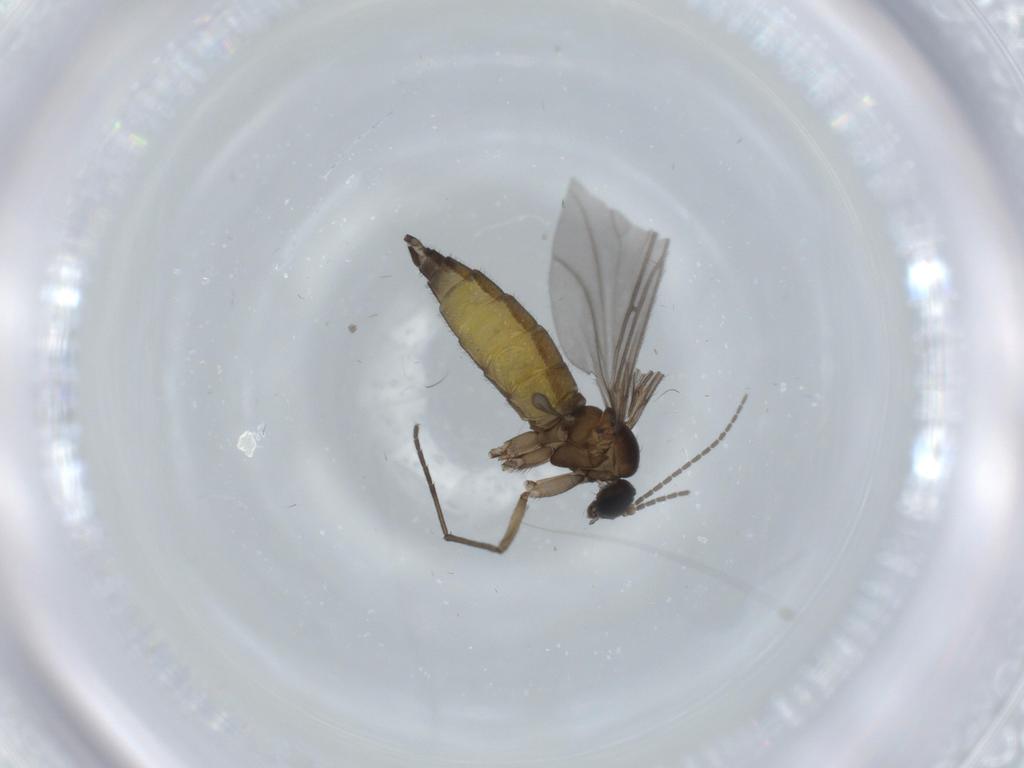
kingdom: Animalia
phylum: Arthropoda
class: Insecta
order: Diptera
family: Sciaridae
